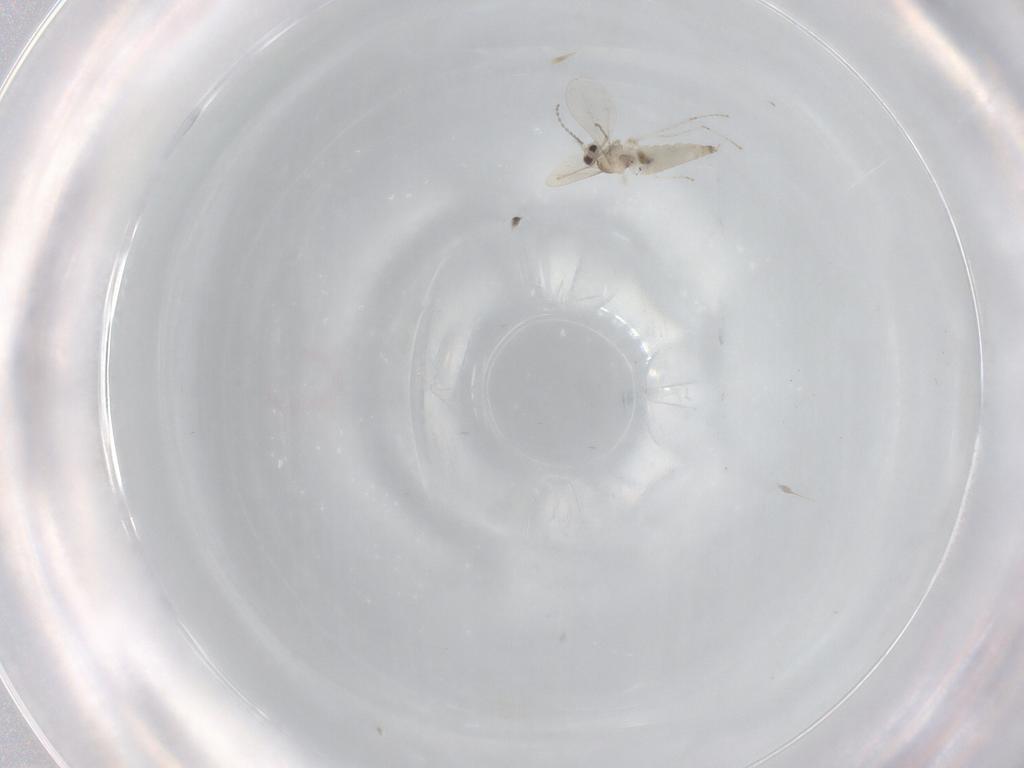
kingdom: Animalia
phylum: Arthropoda
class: Insecta
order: Diptera
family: Cecidomyiidae
